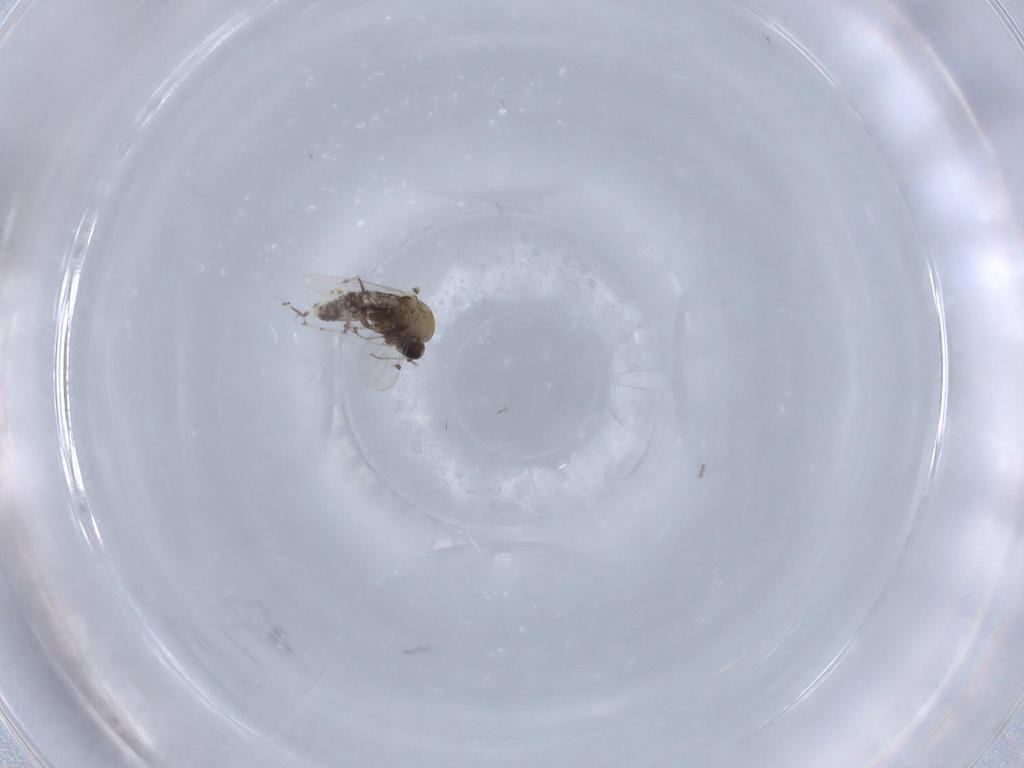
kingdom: Animalia
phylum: Arthropoda
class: Insecta
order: Diptera
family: Ceratopogonidae
